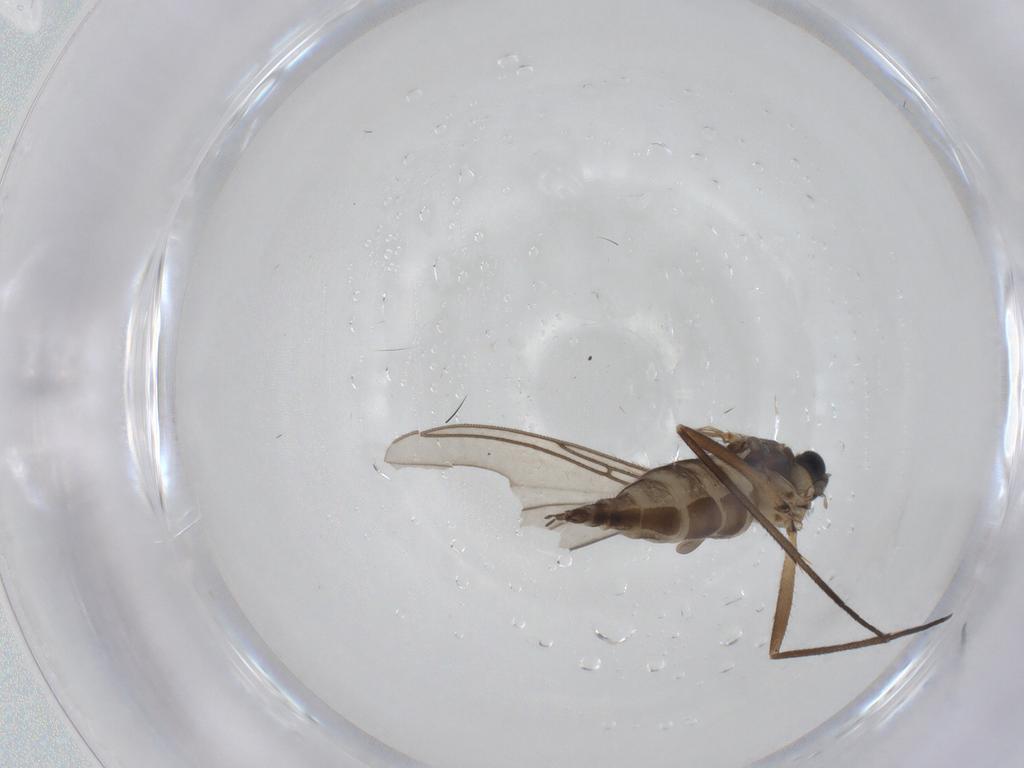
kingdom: Animalia
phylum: Arthropoda
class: Insecta
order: Diptera
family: Sciaridae
